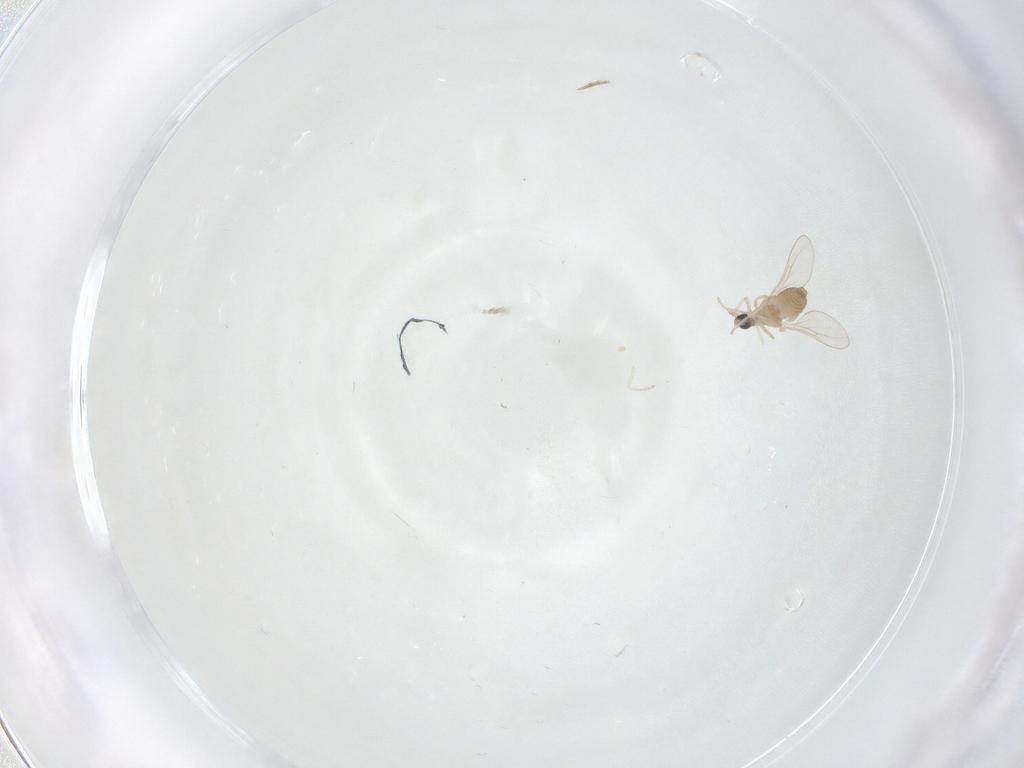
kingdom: Animalia
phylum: Arthropoda
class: Insecta
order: Diptera
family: Cecidomyiidae
